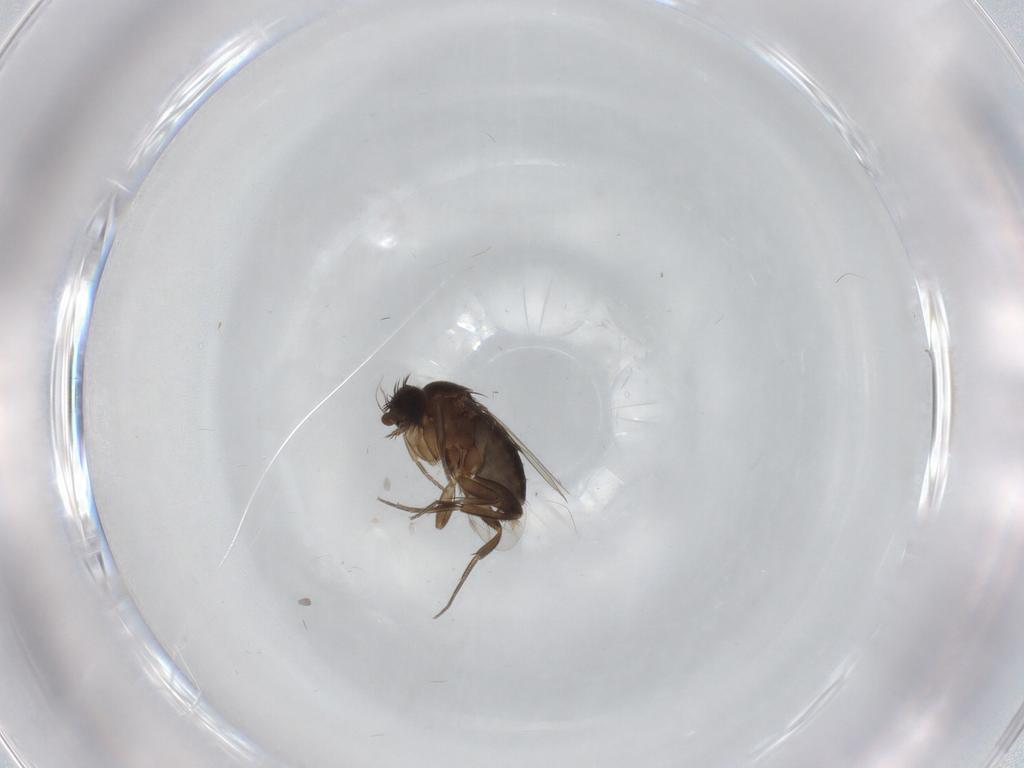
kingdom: Animalia
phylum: Arthropoda
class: Insecta
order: Diptera
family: Phoridae
